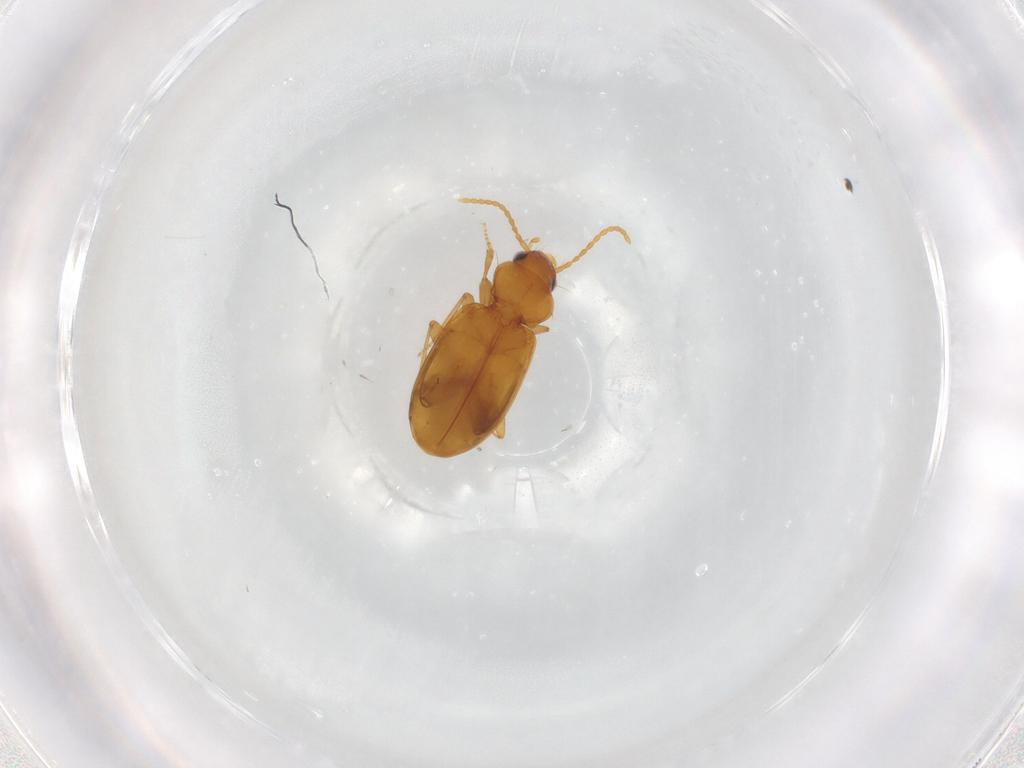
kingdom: Animalia
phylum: Arthropoda
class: Insecta
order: Coleoptera
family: Carabidae
